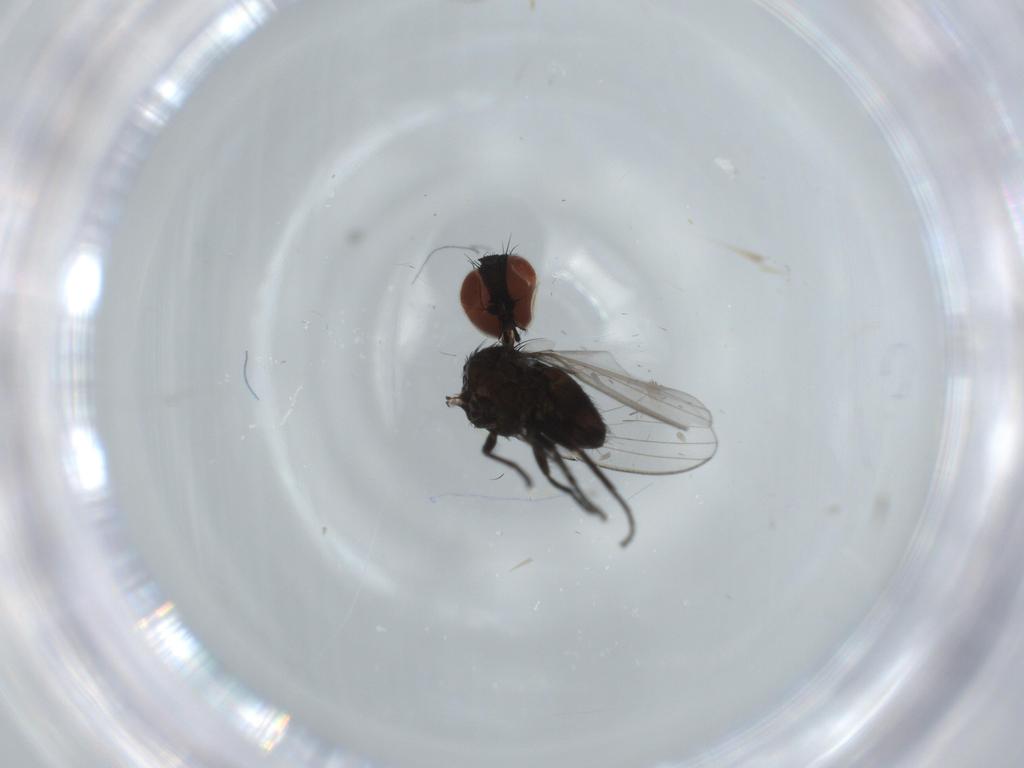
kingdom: Animalia
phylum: Arthropoda
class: Insecta
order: Diptera
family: Milichiidae
